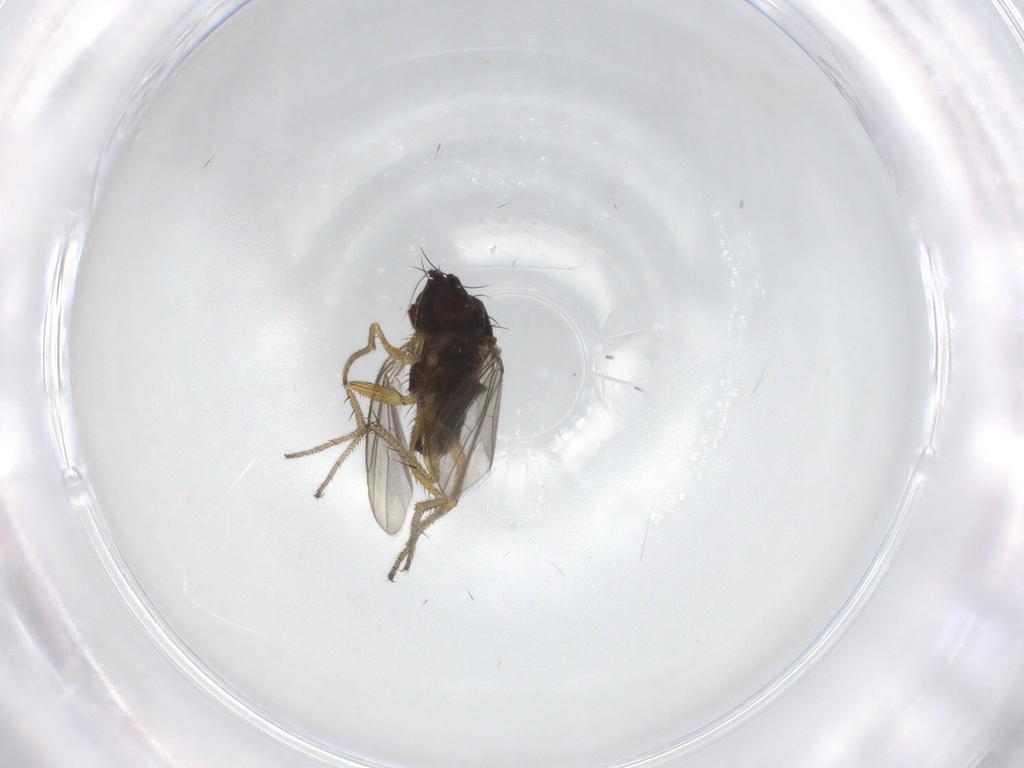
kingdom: Animalia
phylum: Arthropoda
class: Insecta
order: Diptera
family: Dolichopodidae
